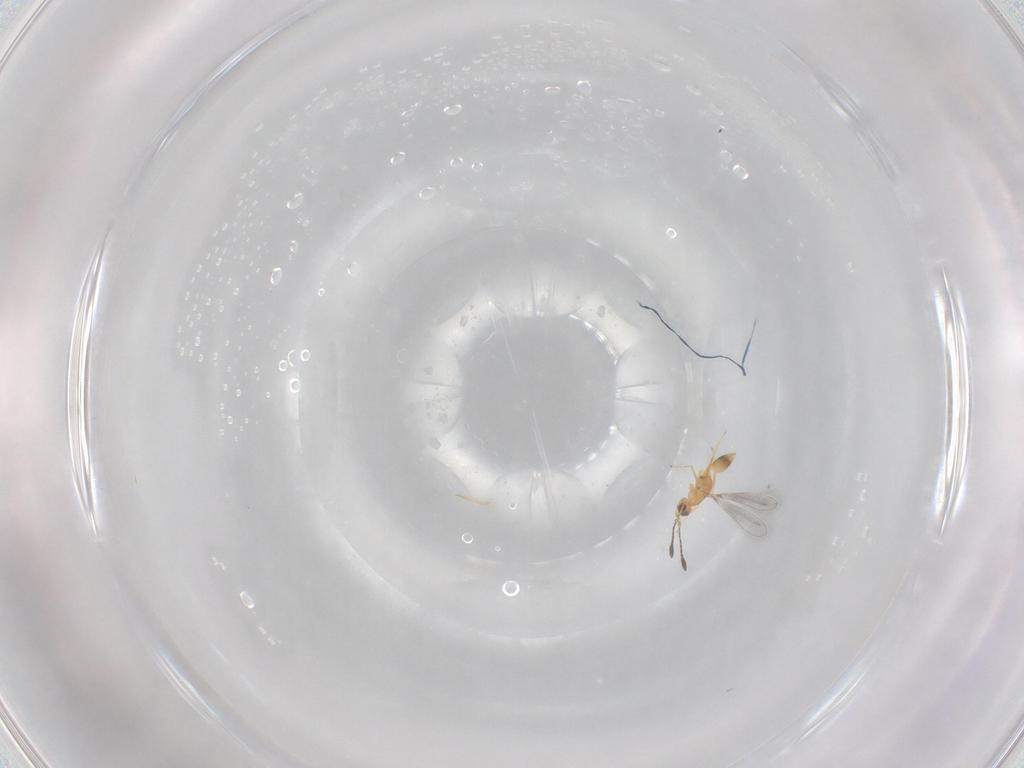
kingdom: Animalia
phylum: Arthropoda
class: Insecta
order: Hymenoptera
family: Mymaridae
